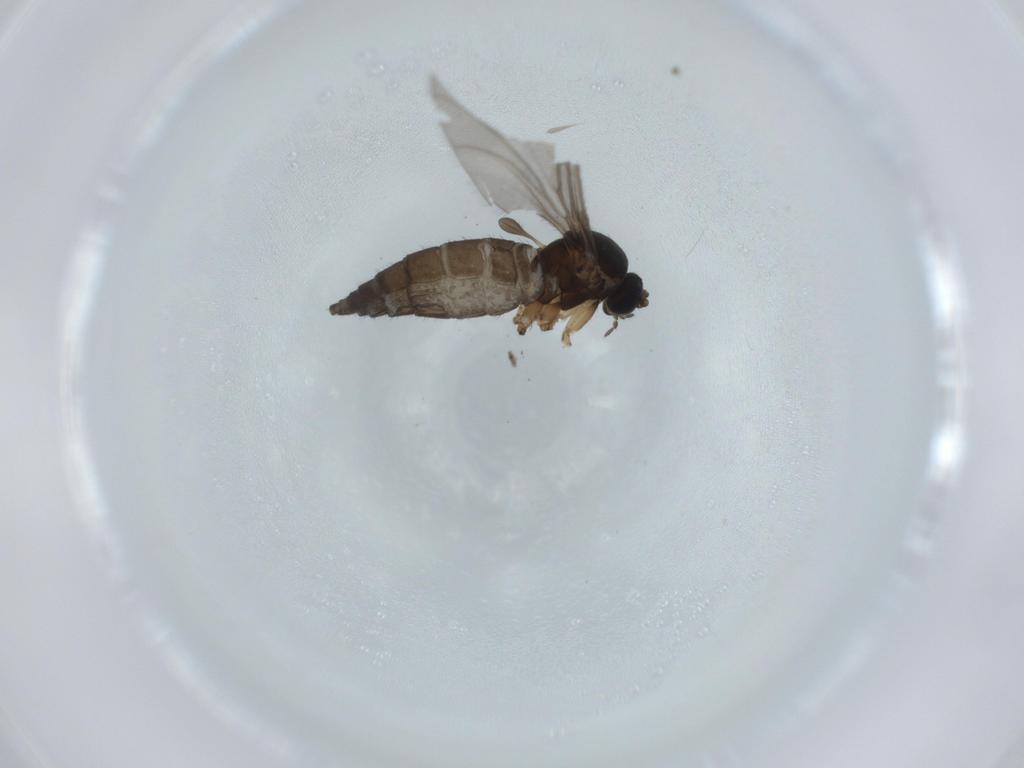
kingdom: Animalia
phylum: Arthropoda
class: Insecta
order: Diptera
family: Sciaridae
